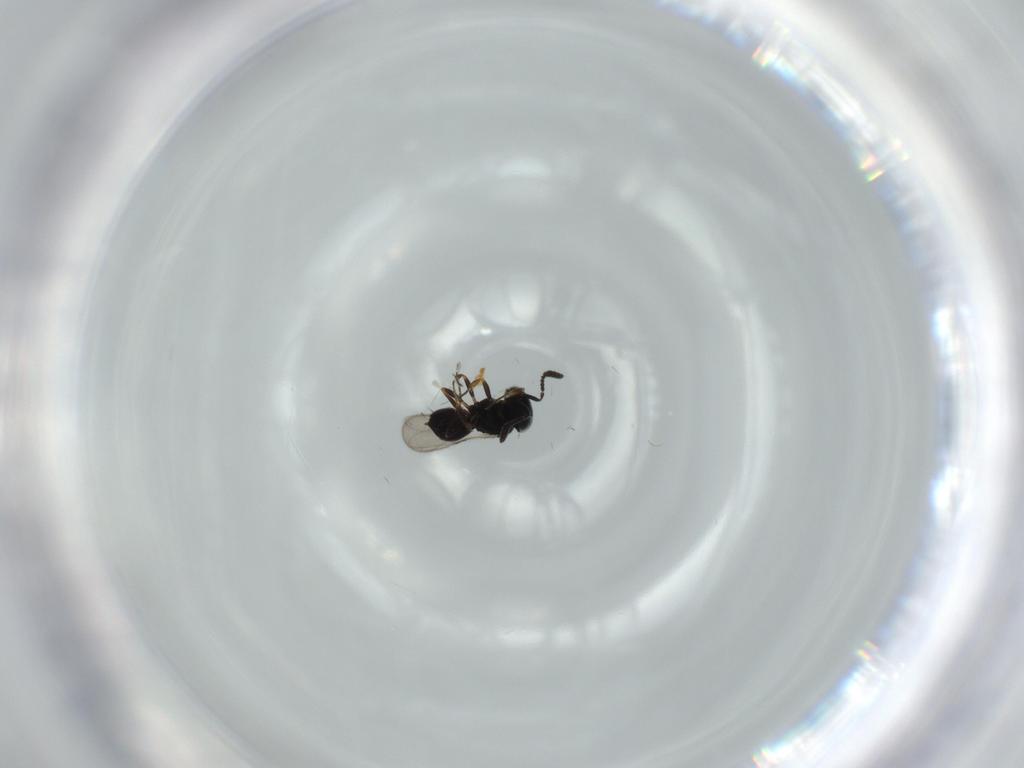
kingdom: Animalia
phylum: Arthropoda
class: Insecta
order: Hymenoptera
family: Scelionidae
